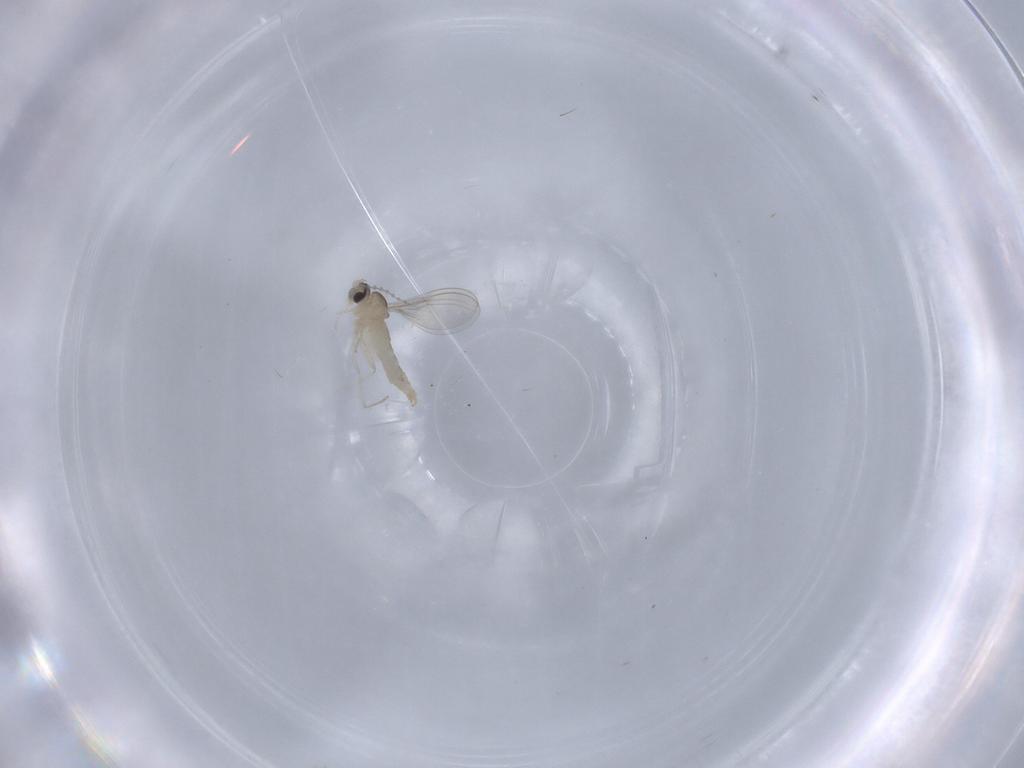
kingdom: Animalia
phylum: Arthropoda
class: Insecta
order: Diptera
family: Cecidomyiidae
